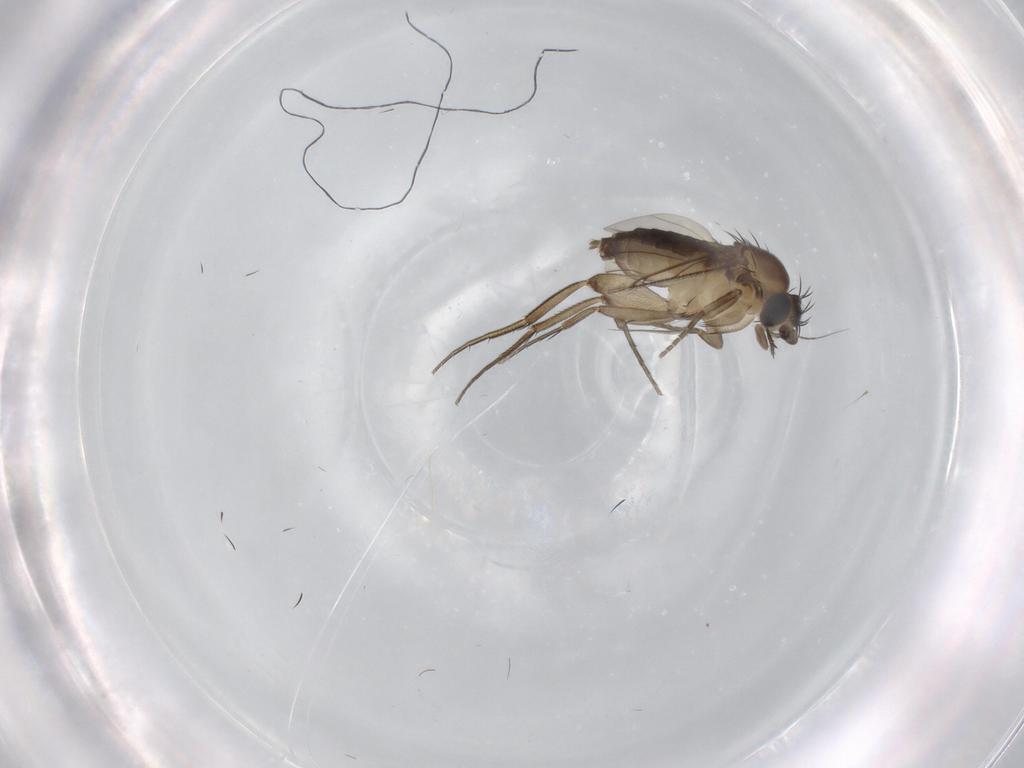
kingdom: Animalia
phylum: Arthropoda
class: Insecta
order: Diptera
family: Phoridae
